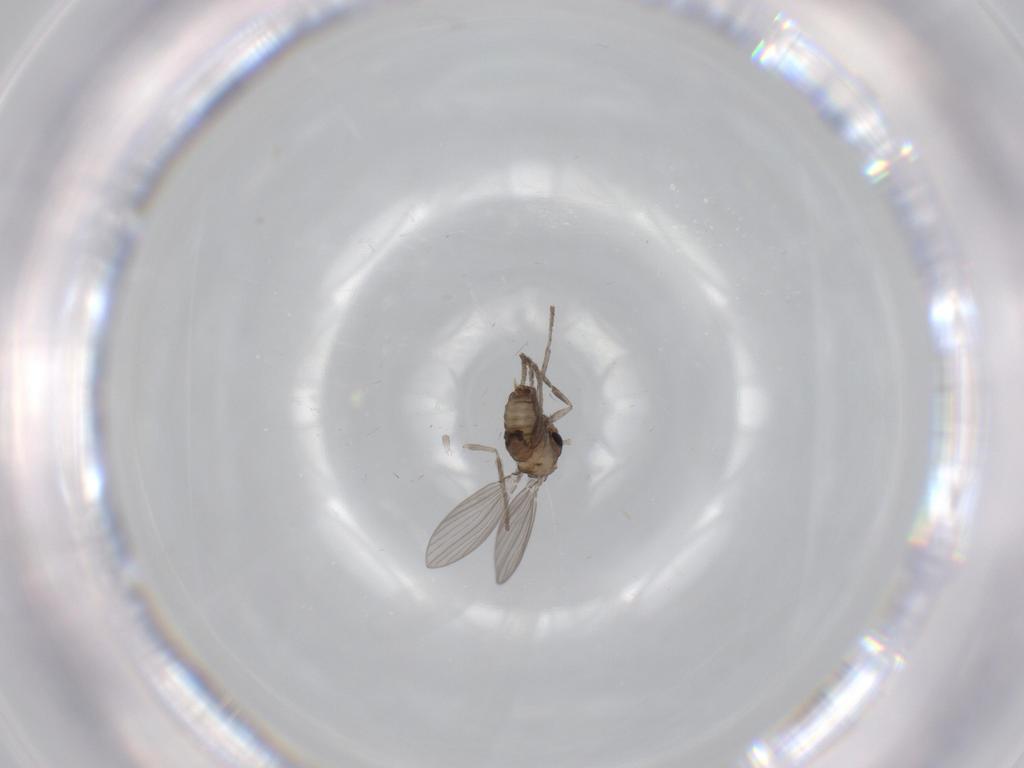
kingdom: Animalia
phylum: Arthropoda
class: Insecta
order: Diptera
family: Psychodidae
